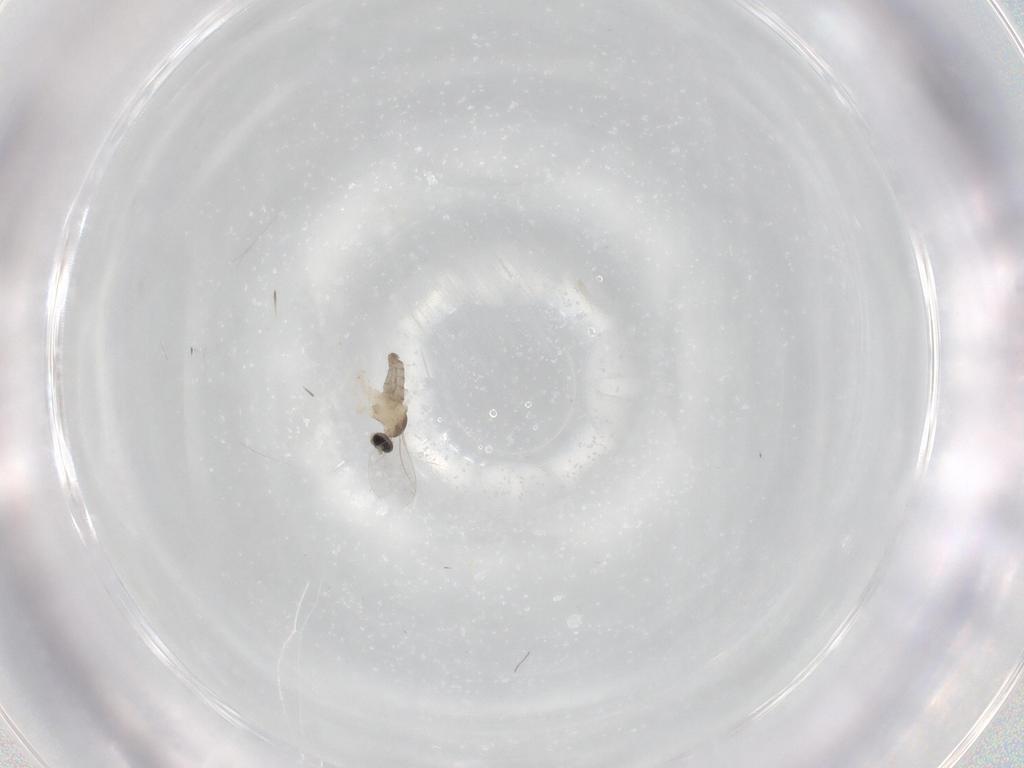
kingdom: Animalia
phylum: Arthropoda
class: Insecta
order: Diptera
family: Cecidomyiidae
